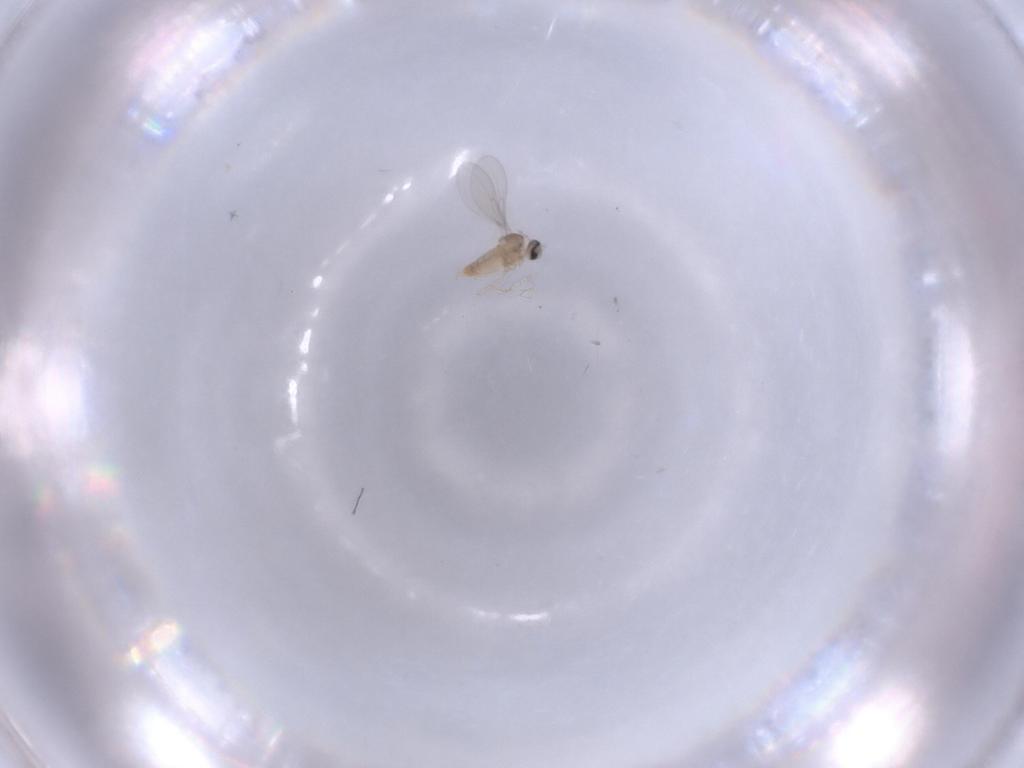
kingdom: Animalia
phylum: Arthropoda
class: Insecta
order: Diptera
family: Cecidomyiidae
